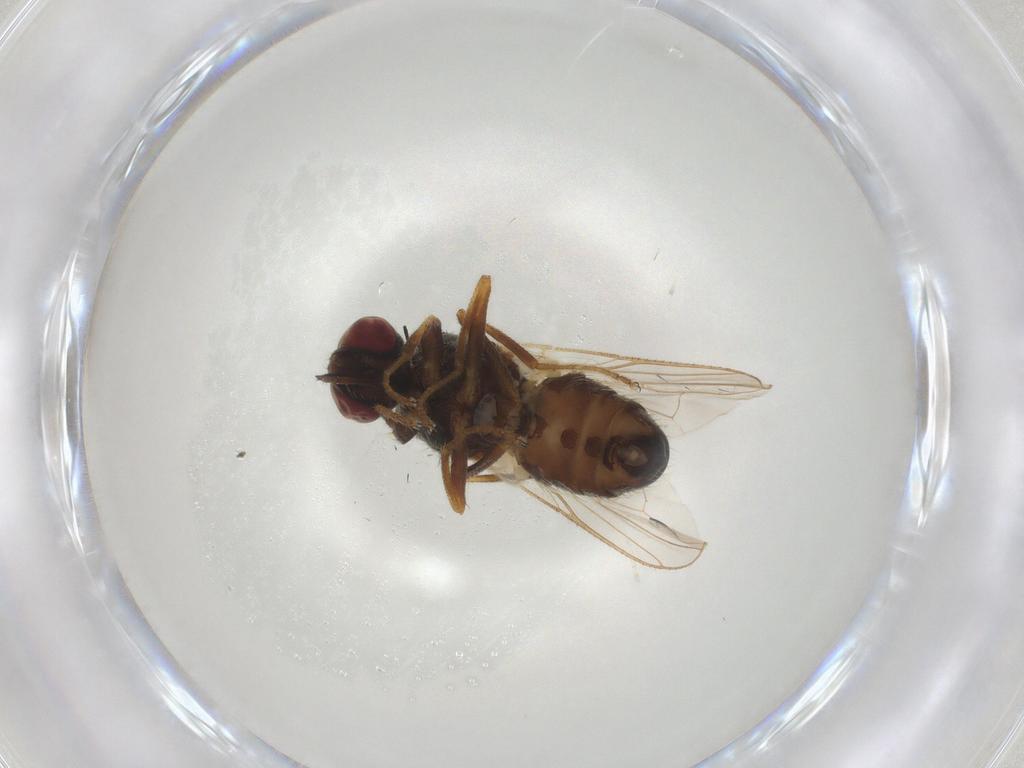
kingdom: Animalia
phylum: Arthropoda
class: Insecta
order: Diptera
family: Muscidae
